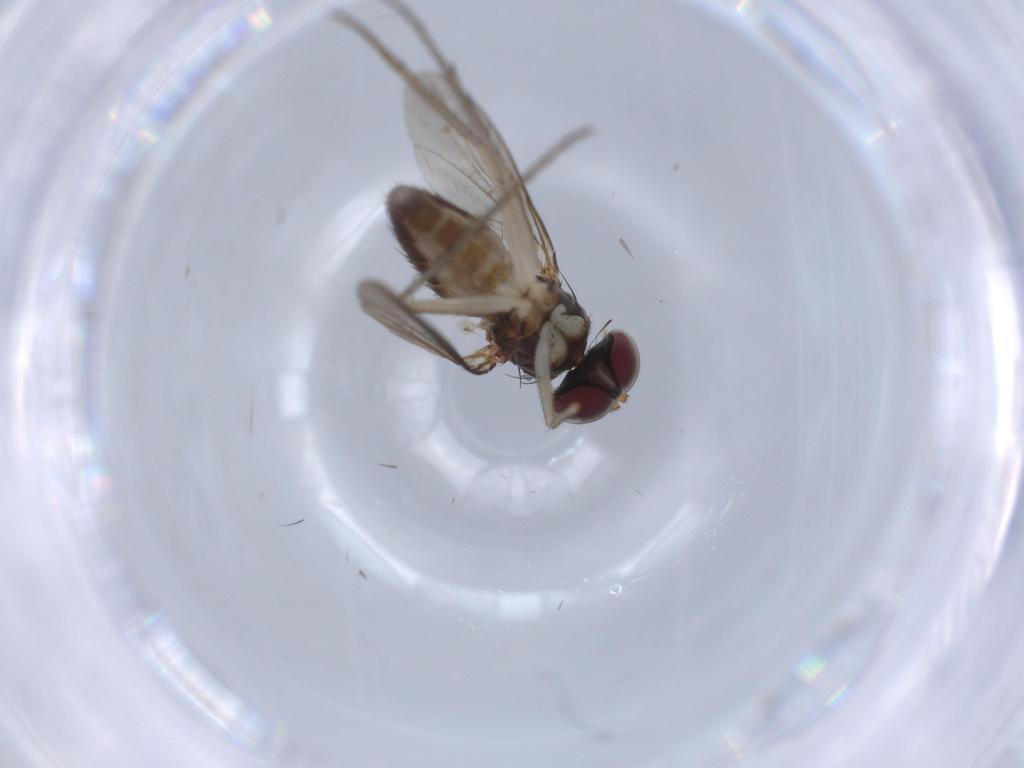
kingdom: Animalia
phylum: Arthropoda
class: Insecta
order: Diptera
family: Dolichopodidae
